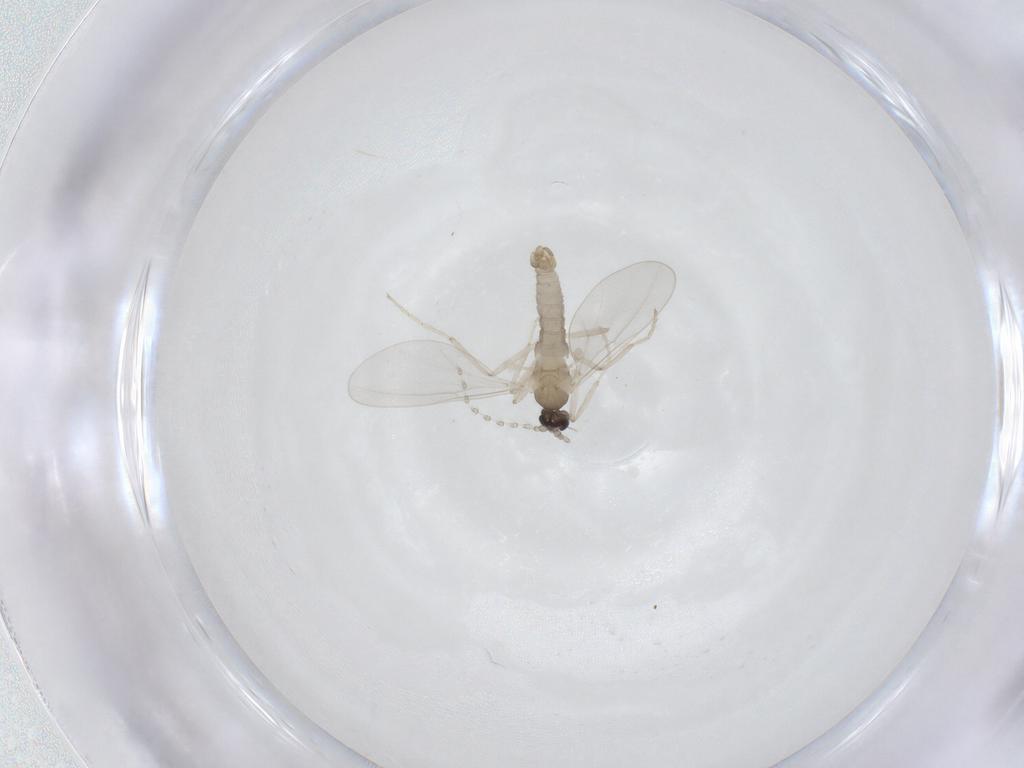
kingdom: Animalia
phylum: Arthropoda
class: Insecta
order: Diptera
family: Cecidomyiidae
